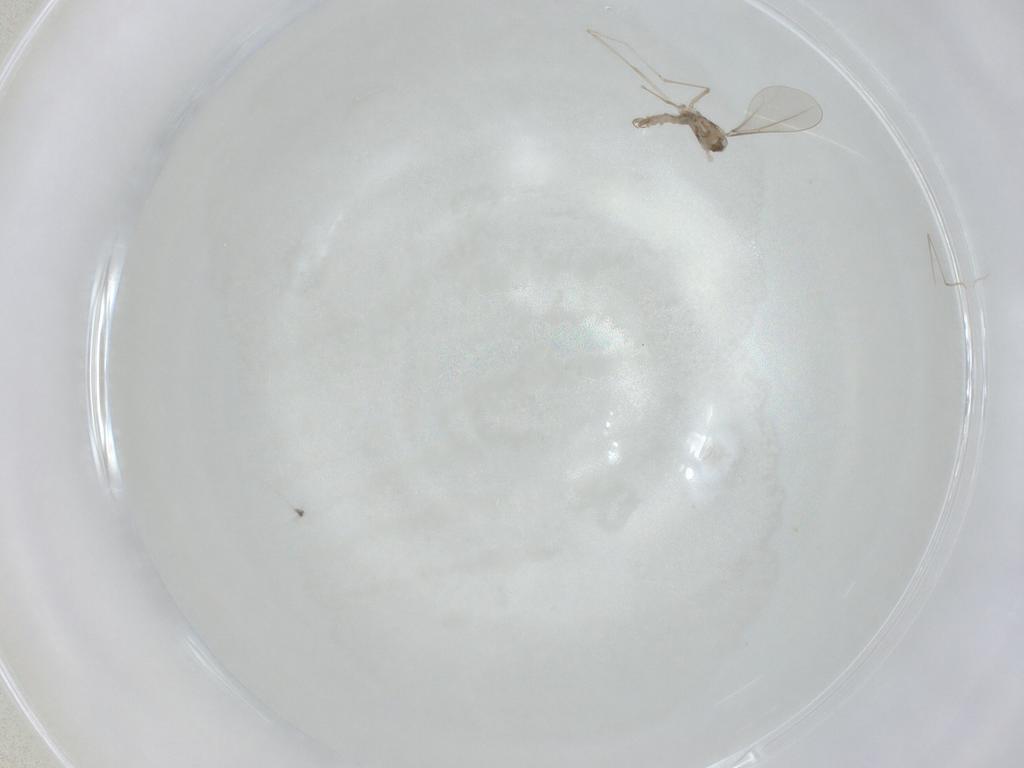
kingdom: Animalia
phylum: Arthropoda
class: Insecta
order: Diptera
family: Cecidomyiidae
